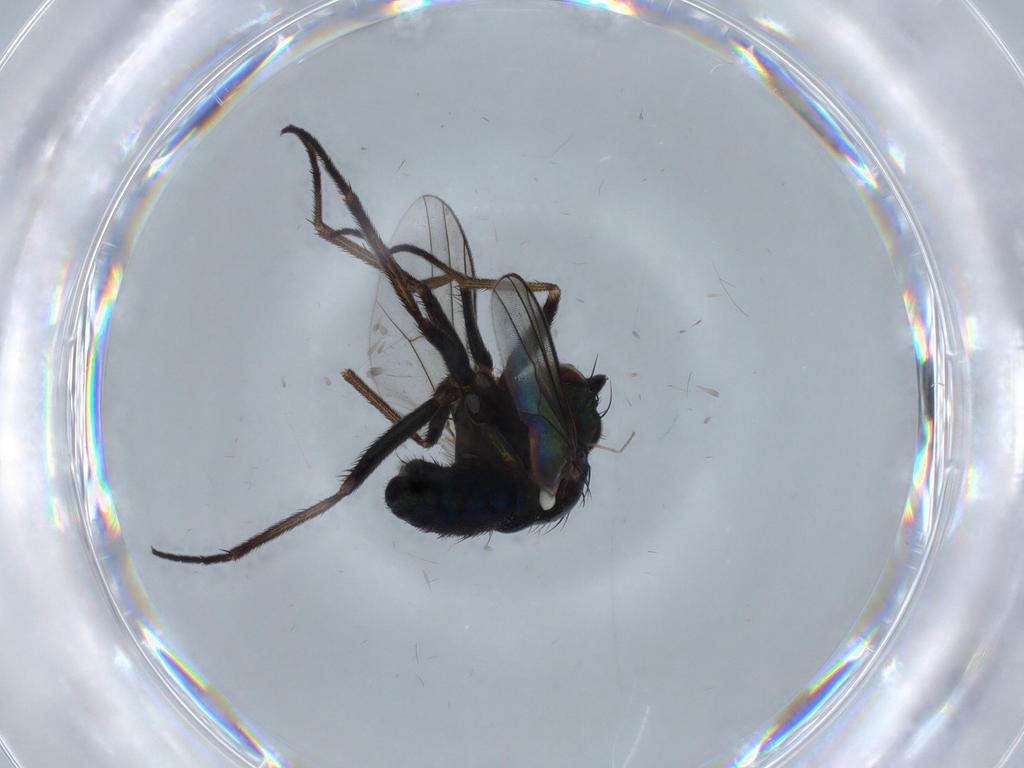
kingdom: Animalia
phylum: Arthropoda
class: Insecta
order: Diptera
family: Dolichopodidae
